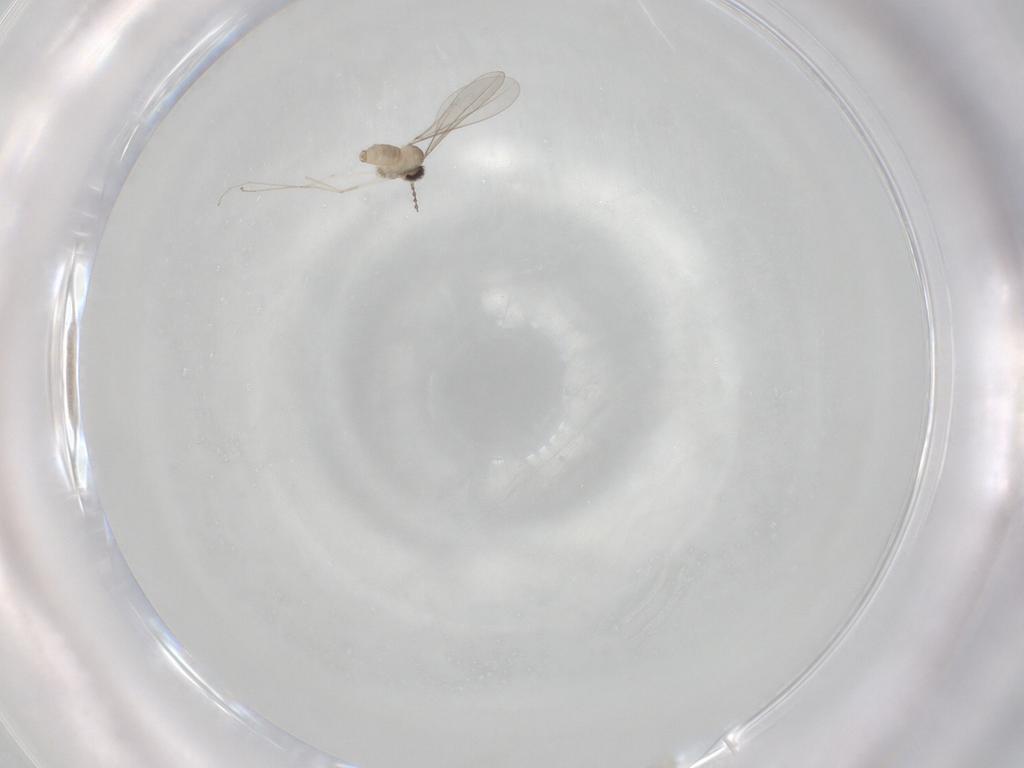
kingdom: Animalia
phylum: Arthropoda
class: Insecta
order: Diptera
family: Cecidomyiidae
